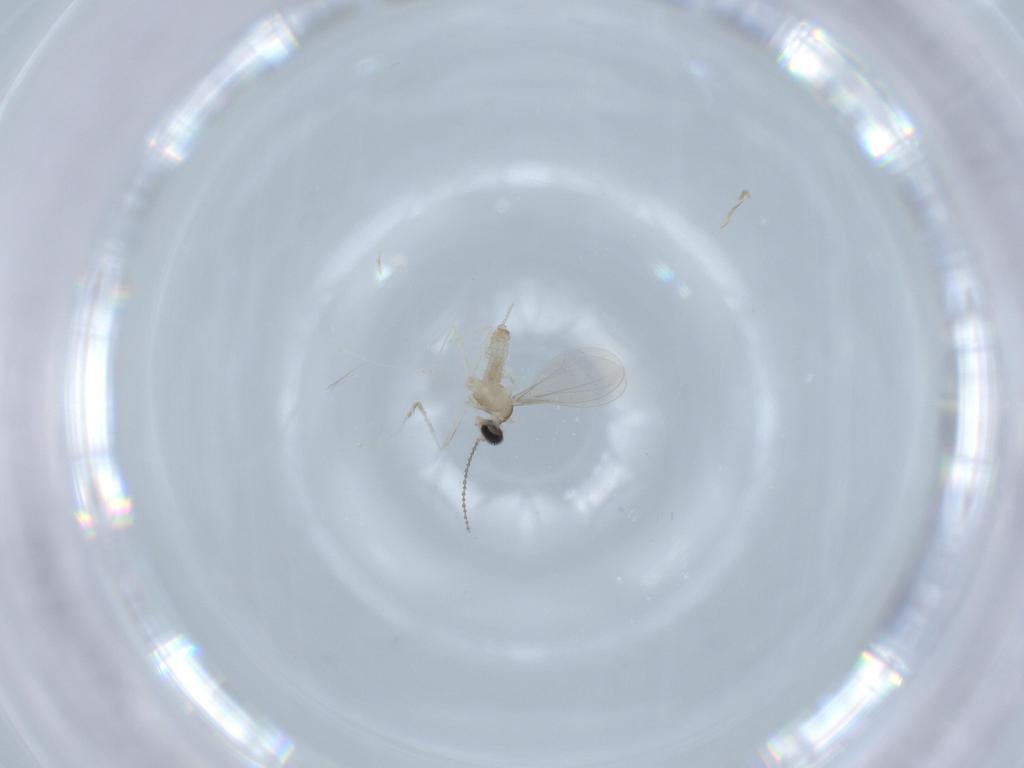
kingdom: Animalia
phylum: Arthropoda
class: Insecta
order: Diptera
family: Cecidomyiidae
